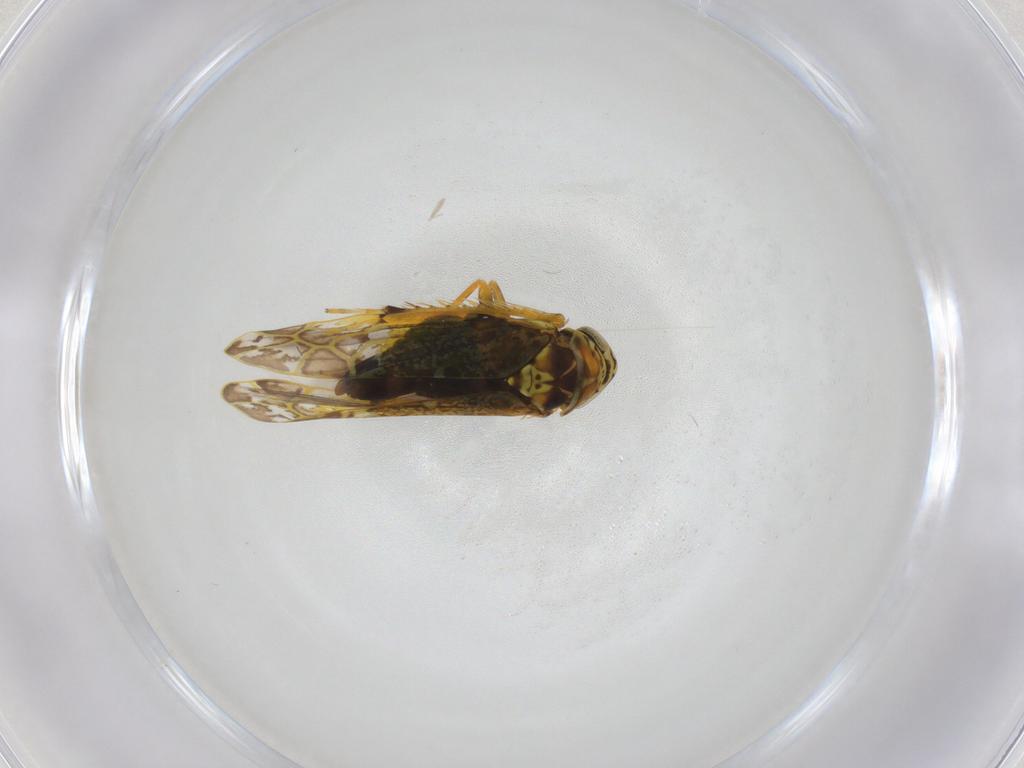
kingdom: Animalia
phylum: Arthropoda
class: Insecta
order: Hemiptera
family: Cicadellidae
